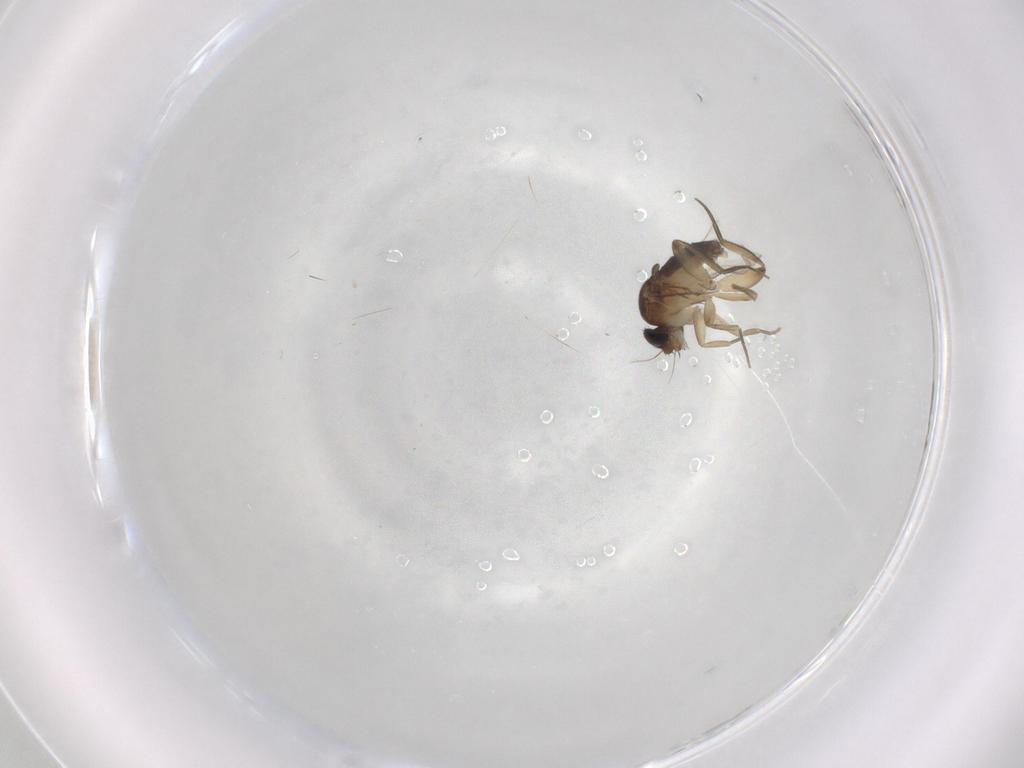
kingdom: Animalia
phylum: Arthropoda
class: Insecta
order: Diptera
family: Phoridae
